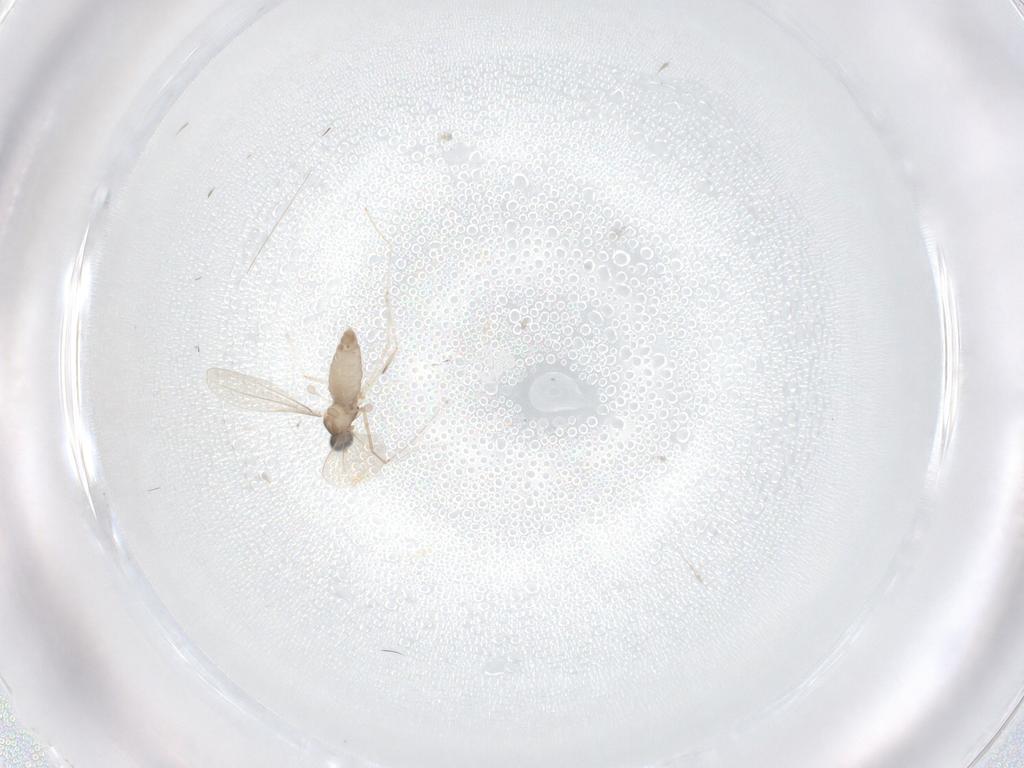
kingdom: Animalia
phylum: Arthropoda
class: Insecta
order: Diptera
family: Cecidomyiidae
